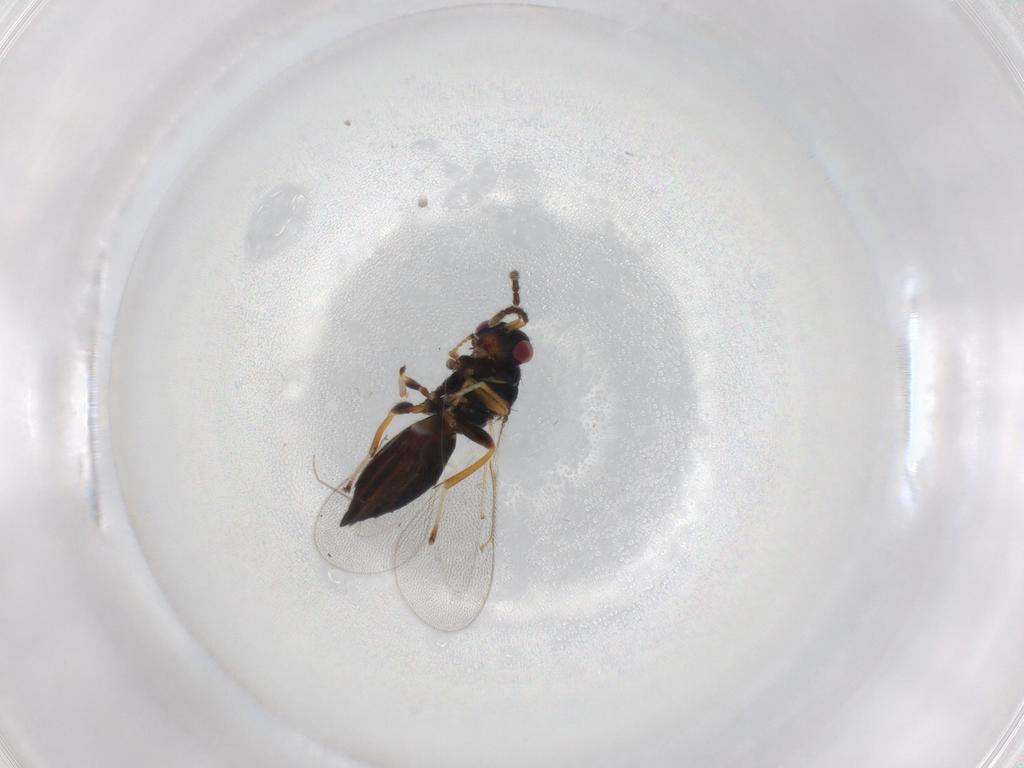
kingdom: Animalia
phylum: Arthropoda
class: Insecta
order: Hymenoptera
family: Eulophidae
